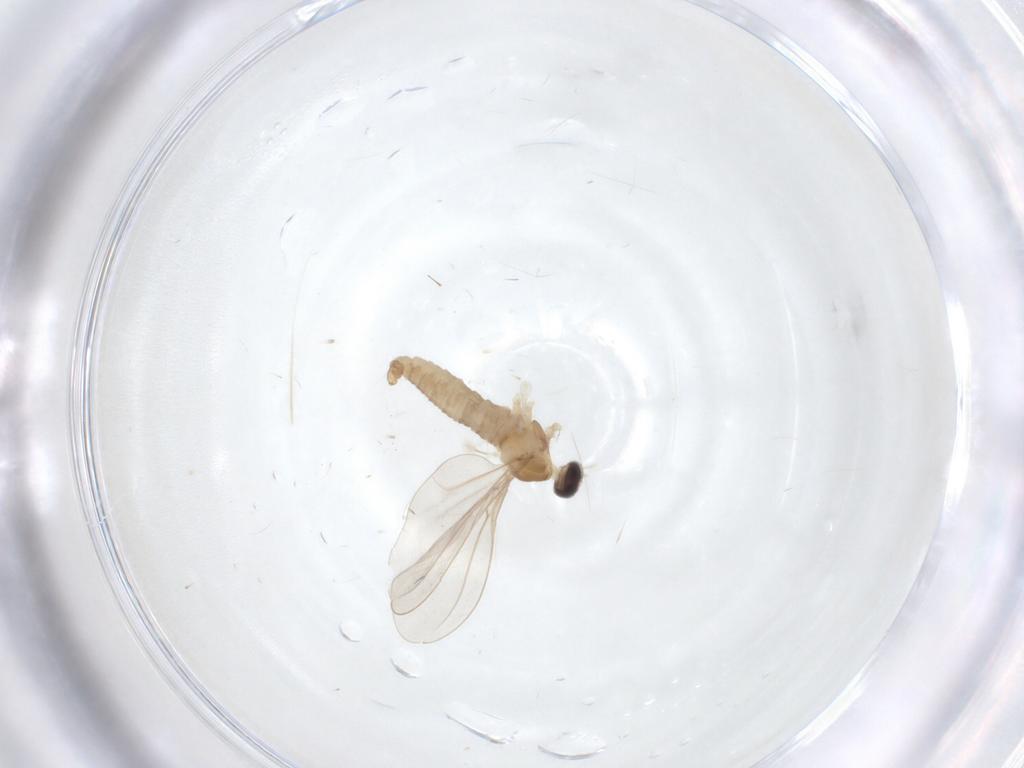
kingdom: Animalia
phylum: Arthropoda
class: Insecta
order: Diptera
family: Cecidomyiidae
